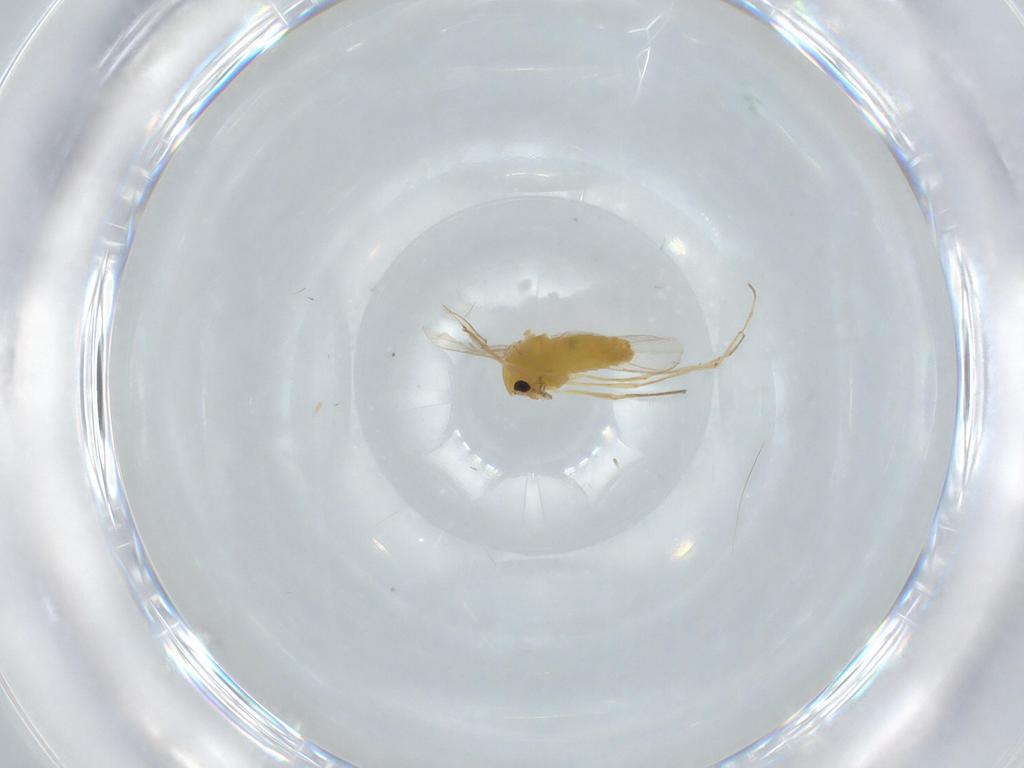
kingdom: Animalia
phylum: Arthropoda
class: Insecta
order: Diptera
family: Chironomidae
